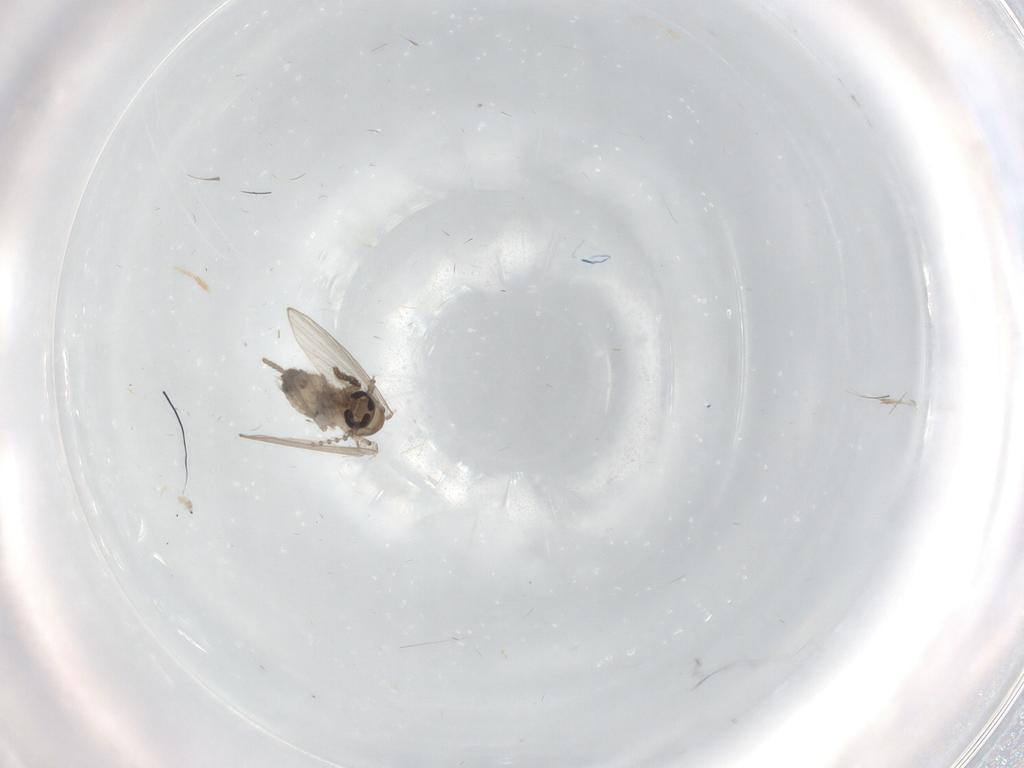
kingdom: Animalia
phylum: Arthropoda
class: Insecta
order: Diptera
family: Psychodidae
